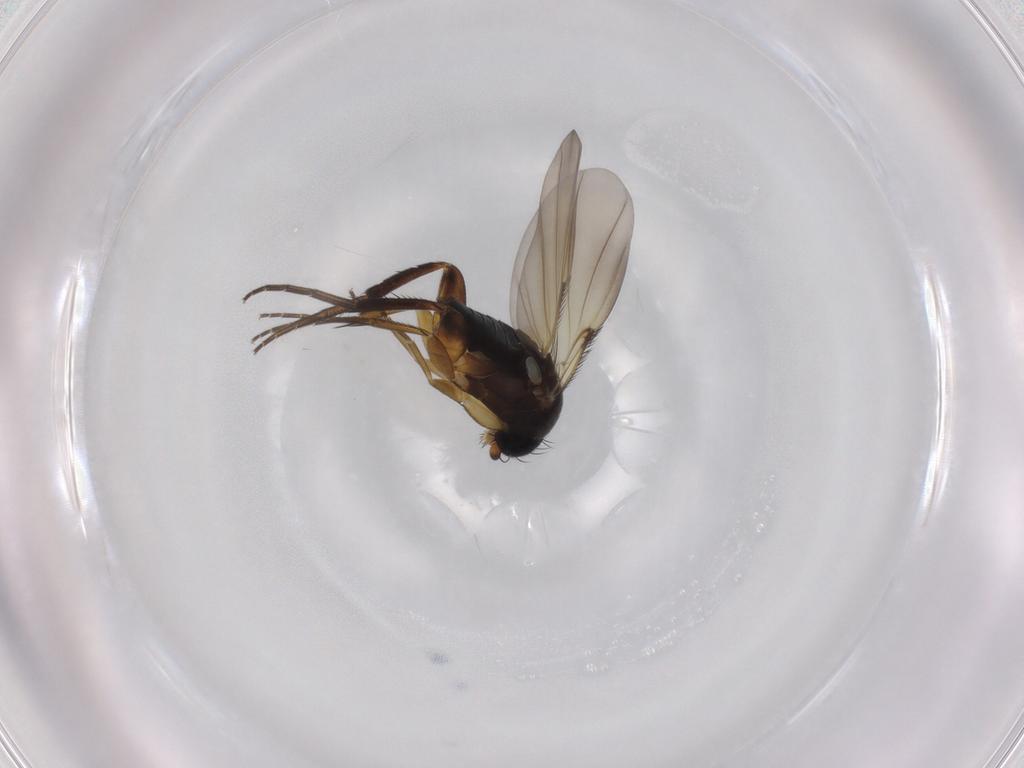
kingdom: Animalia
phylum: Arthropoda
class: Insecta
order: Diptera
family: Phoridae
